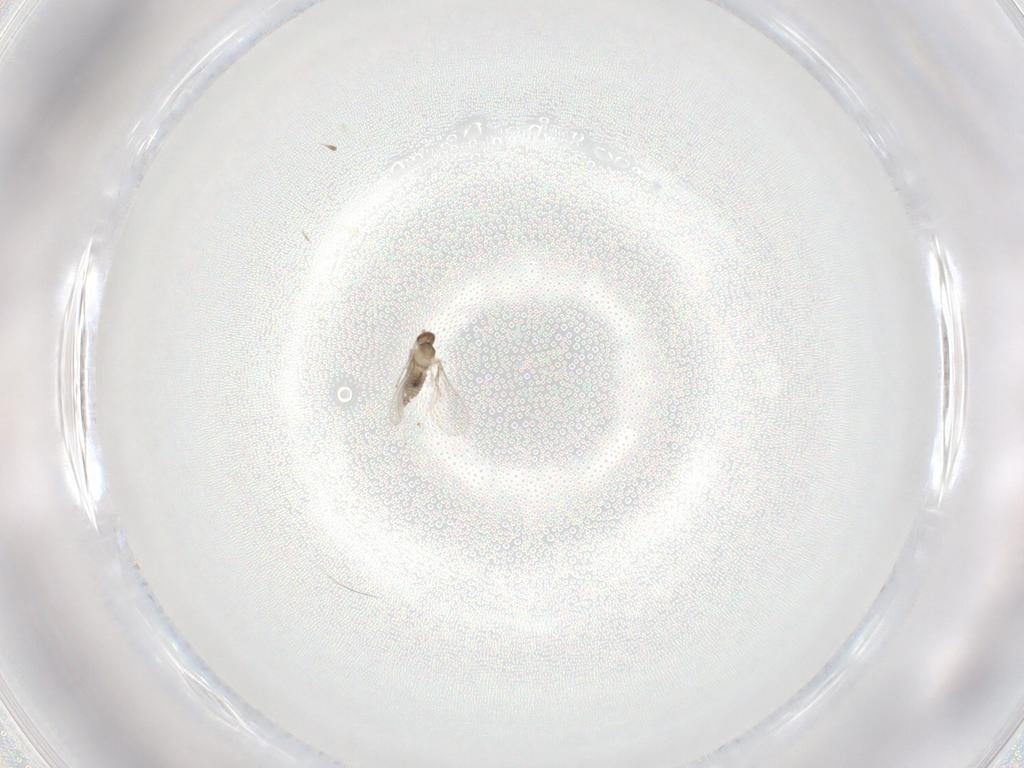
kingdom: Animalia
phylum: Arthropoda
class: Insecta
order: Diptera
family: Cecidomyiidae
